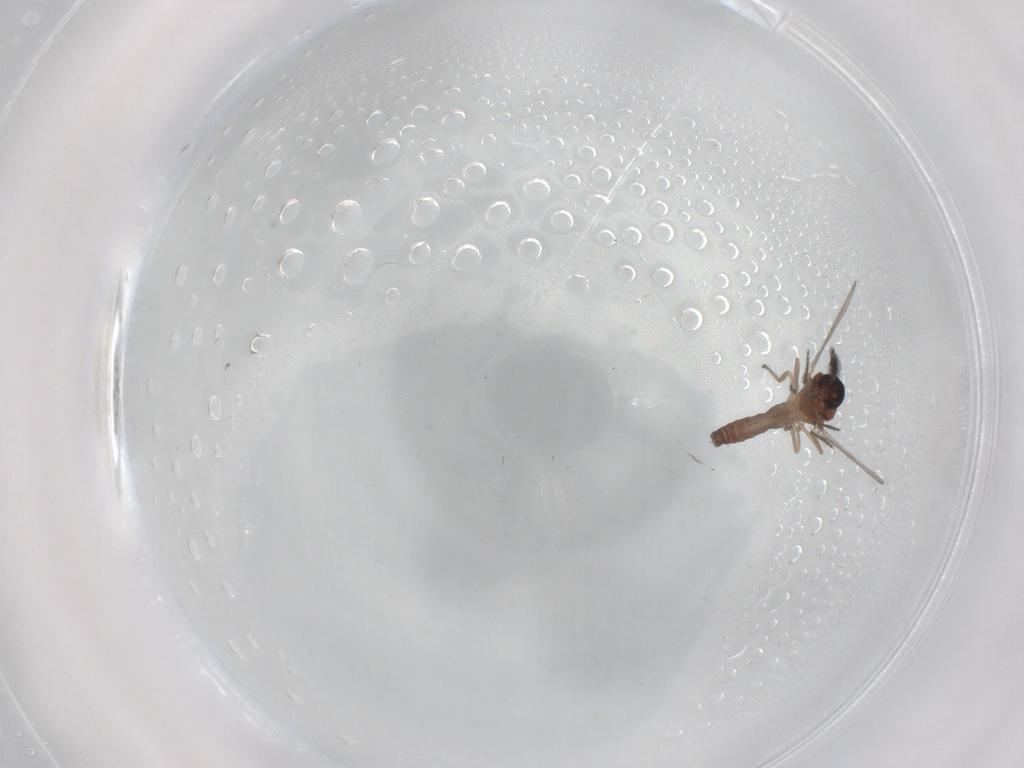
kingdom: Animalia
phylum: Arthropoda
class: Insecta
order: Diptera
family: Ceratopogonidae
